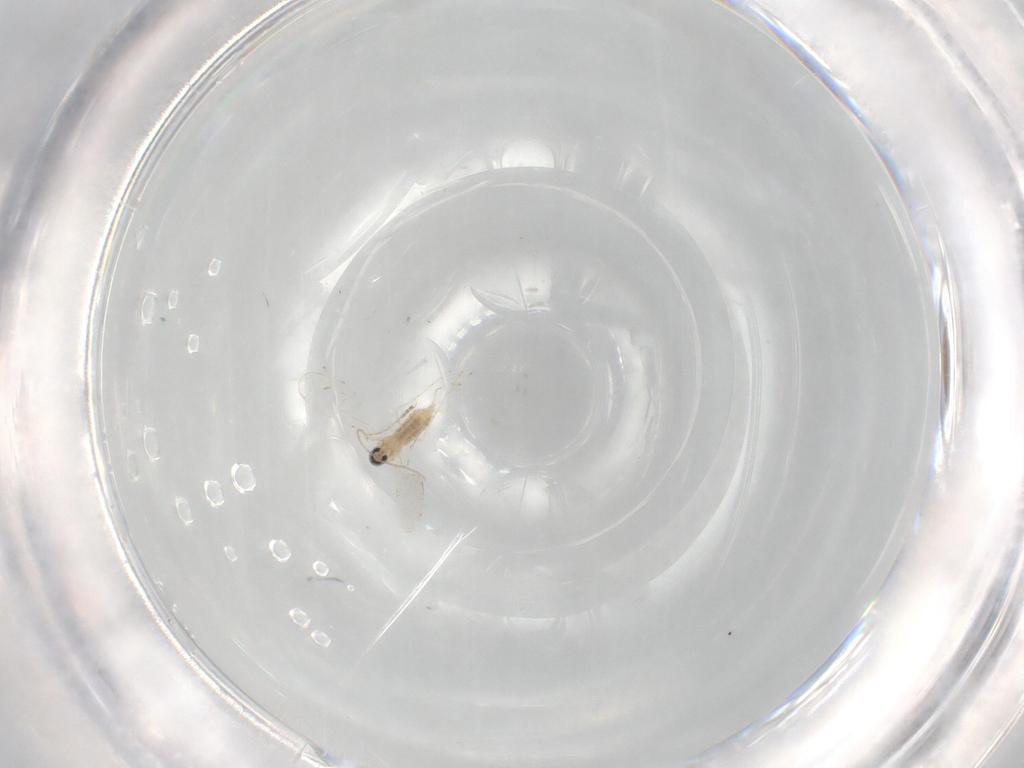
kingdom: Animalia
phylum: Arthropoda
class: Insecta
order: Diptera
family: Cecidomyiidae
